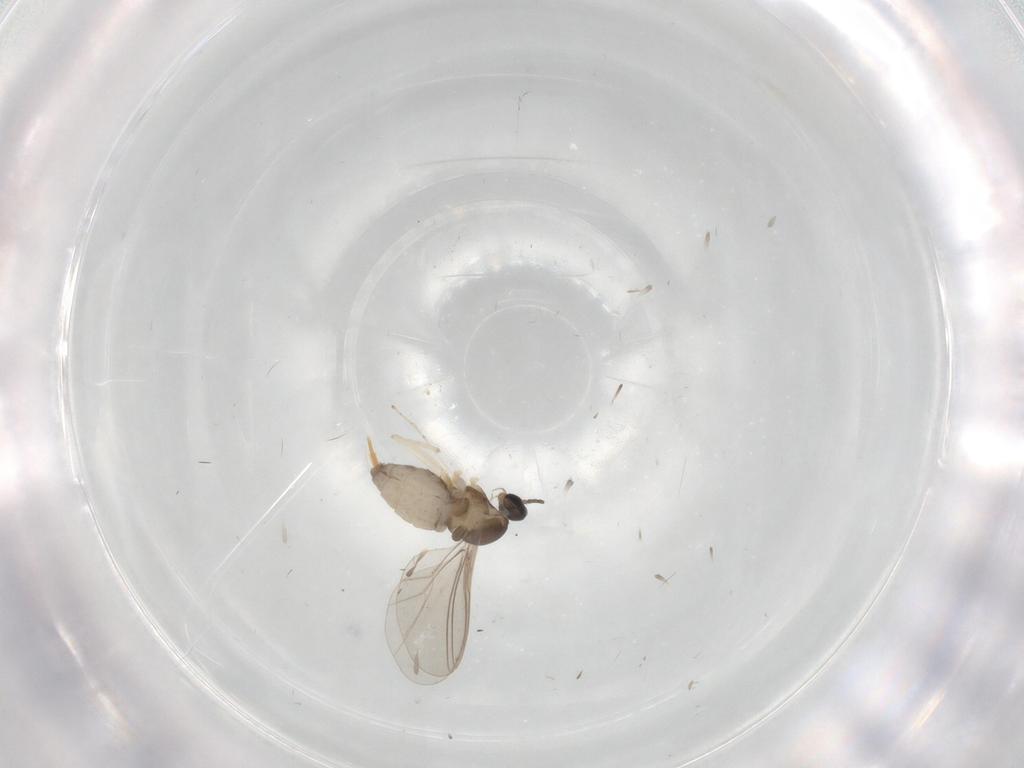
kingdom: Animalia
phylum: Arthropoda
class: Insecta
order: Diptera
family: Cecidomyiidae
